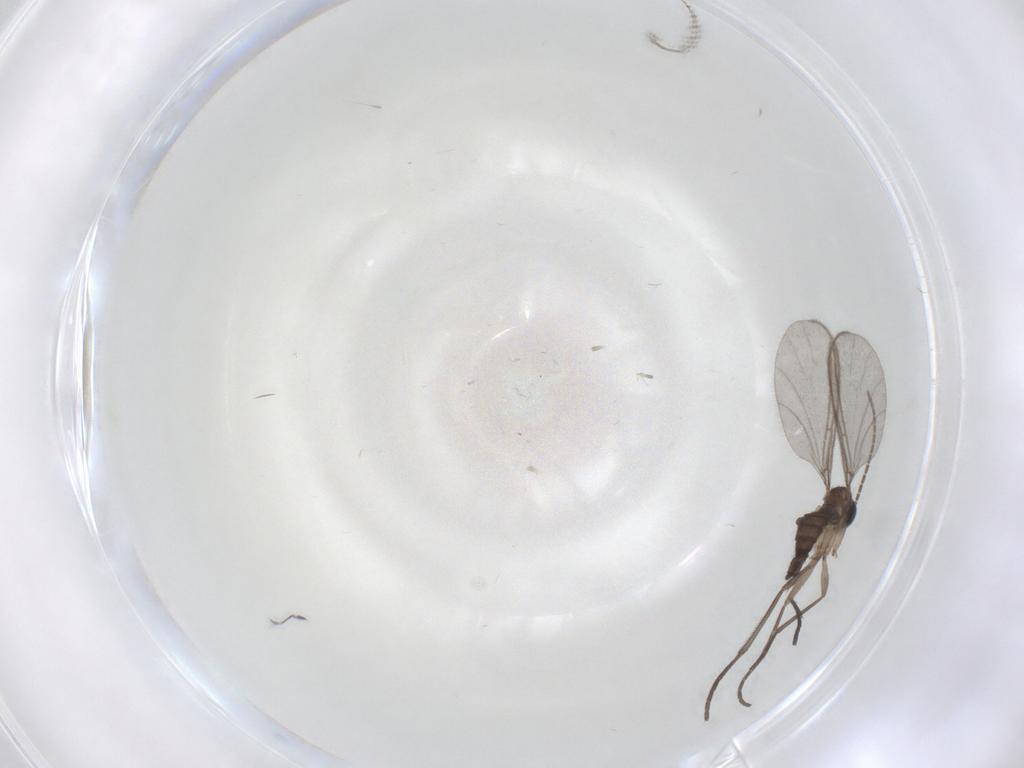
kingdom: Animalia
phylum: Arthropoda
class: Insecta
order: Diptera
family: Sciaridae
